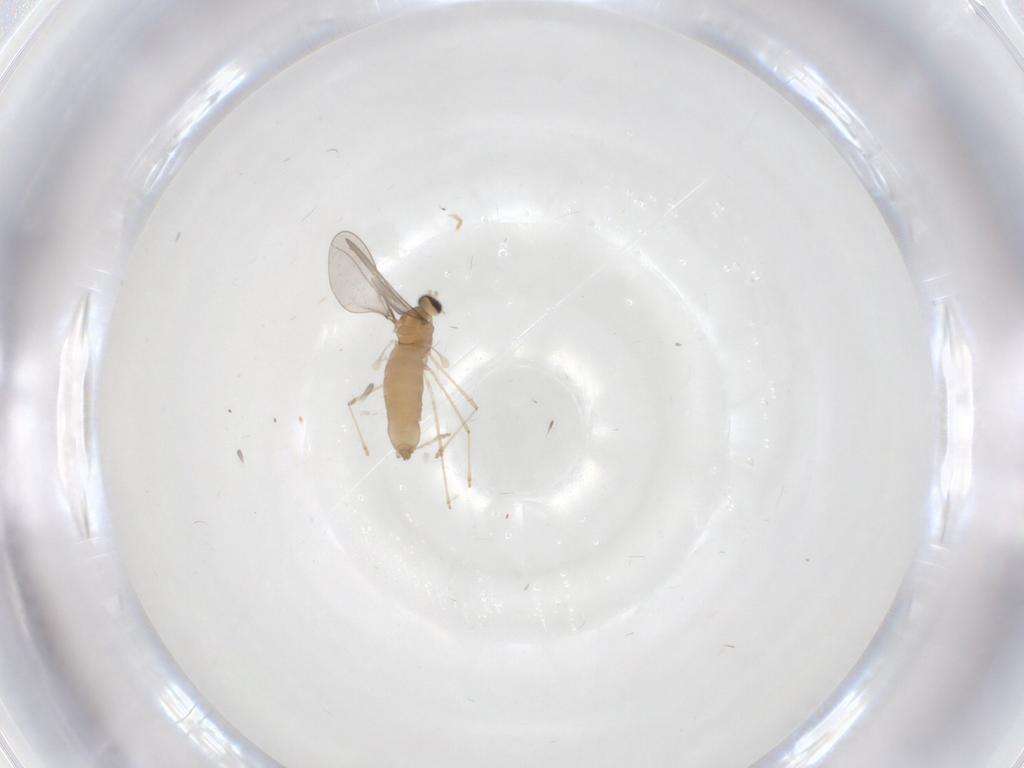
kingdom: Animalia
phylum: Arthropoda
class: Insecta
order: Diptera
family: Cecidomyiidae
